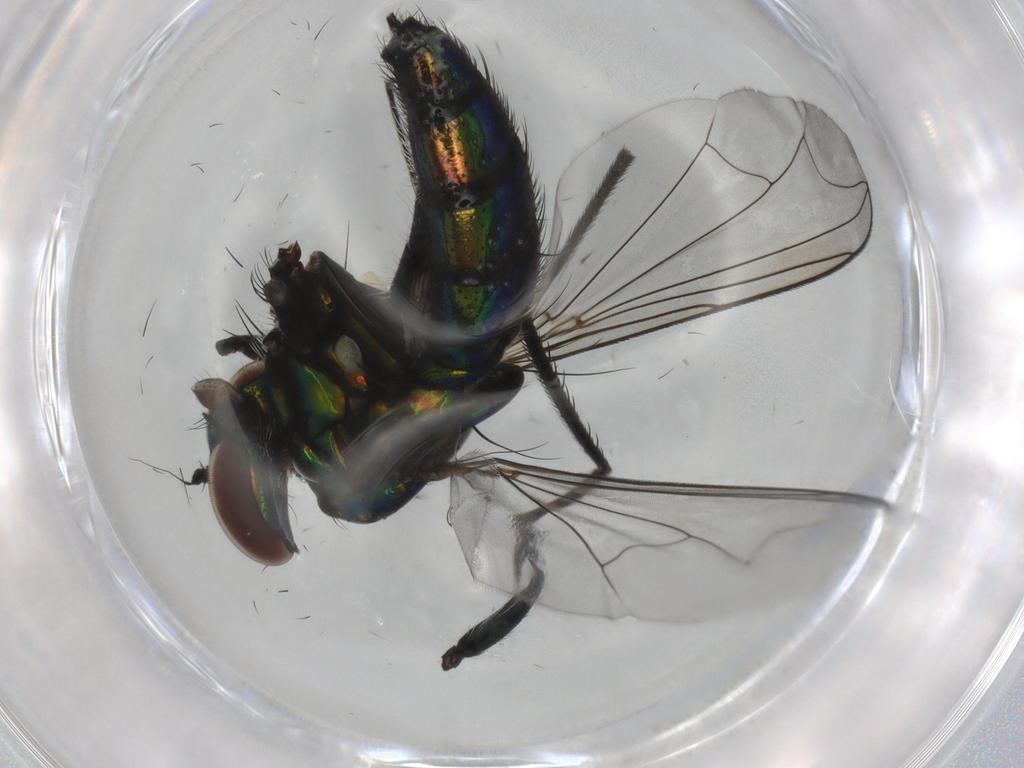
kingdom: Animalia
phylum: Arthropoda
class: Insecta
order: Diptera
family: Dolichopodidae
